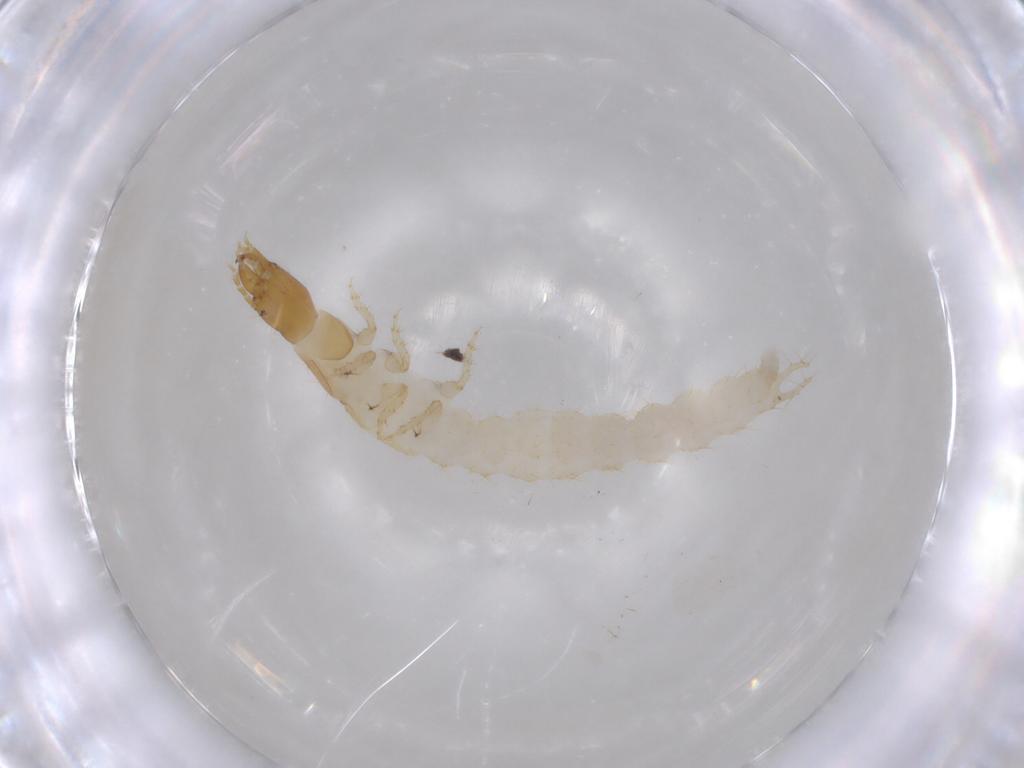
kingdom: Animalia
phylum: Arthropoda
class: Insecta
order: Coleoptera
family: Carabidae
